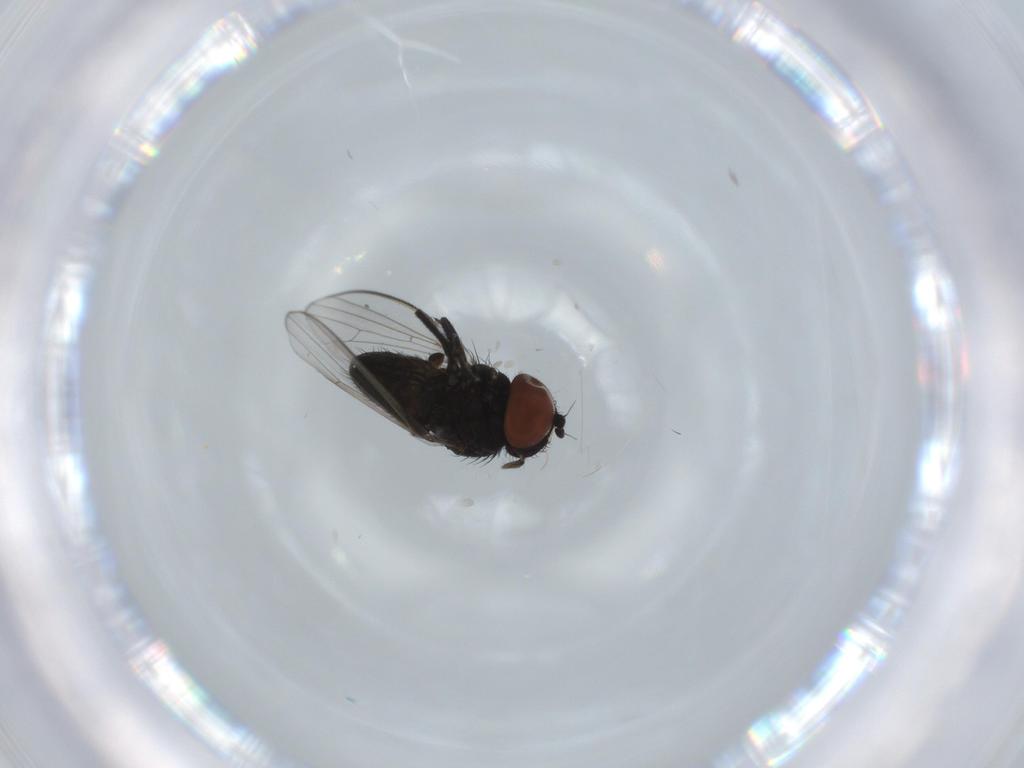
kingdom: Animalia
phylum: Arthropoda
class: Insecta
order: Diptera
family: Milichiidae
